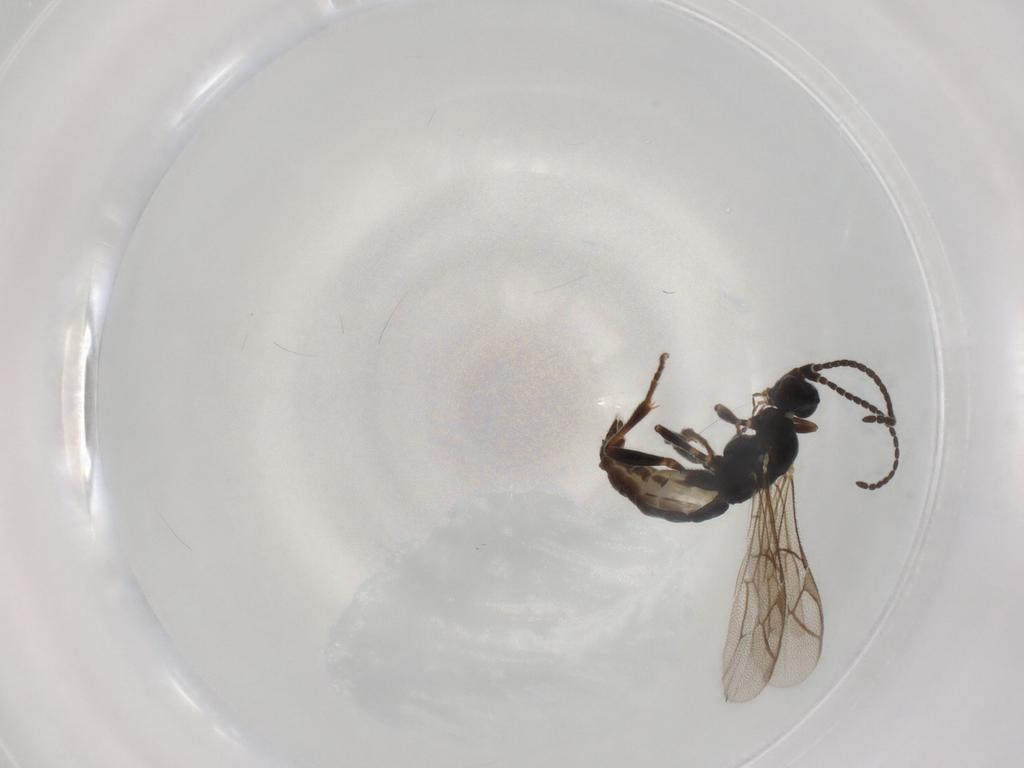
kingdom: Animalia
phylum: Arthropoda
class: Insecta
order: Hymenoptera
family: Ichneumonidae
